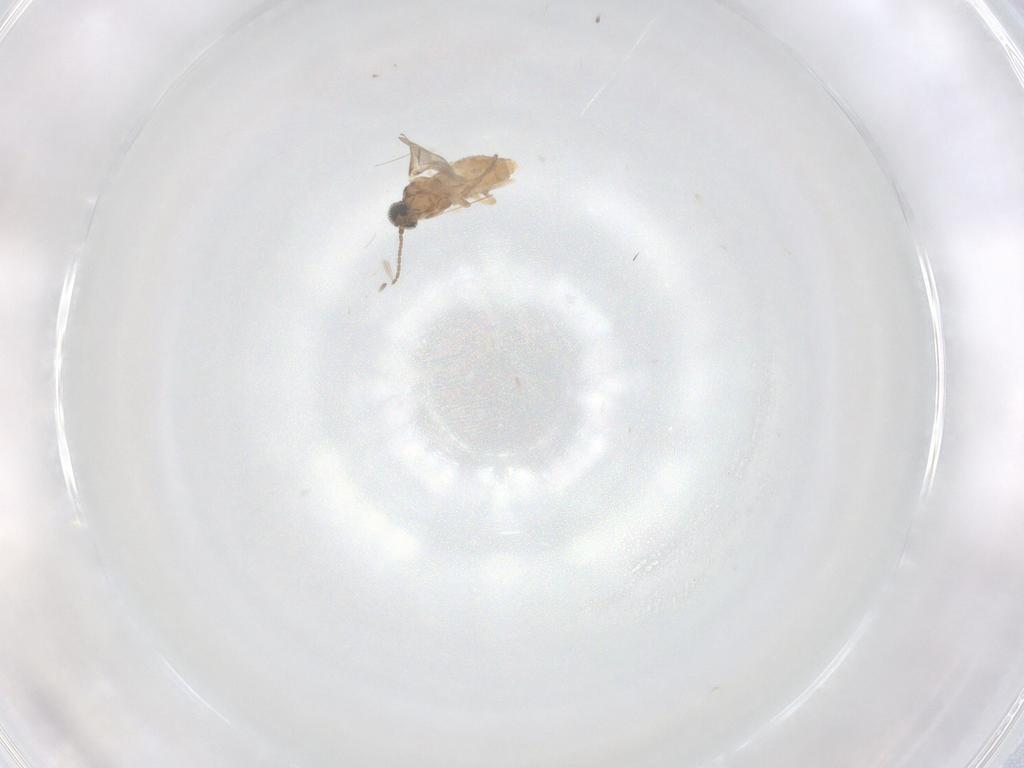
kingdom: Animalia
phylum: Arthropoda
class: Insecta
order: Diptera
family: Cecidomyiidae
